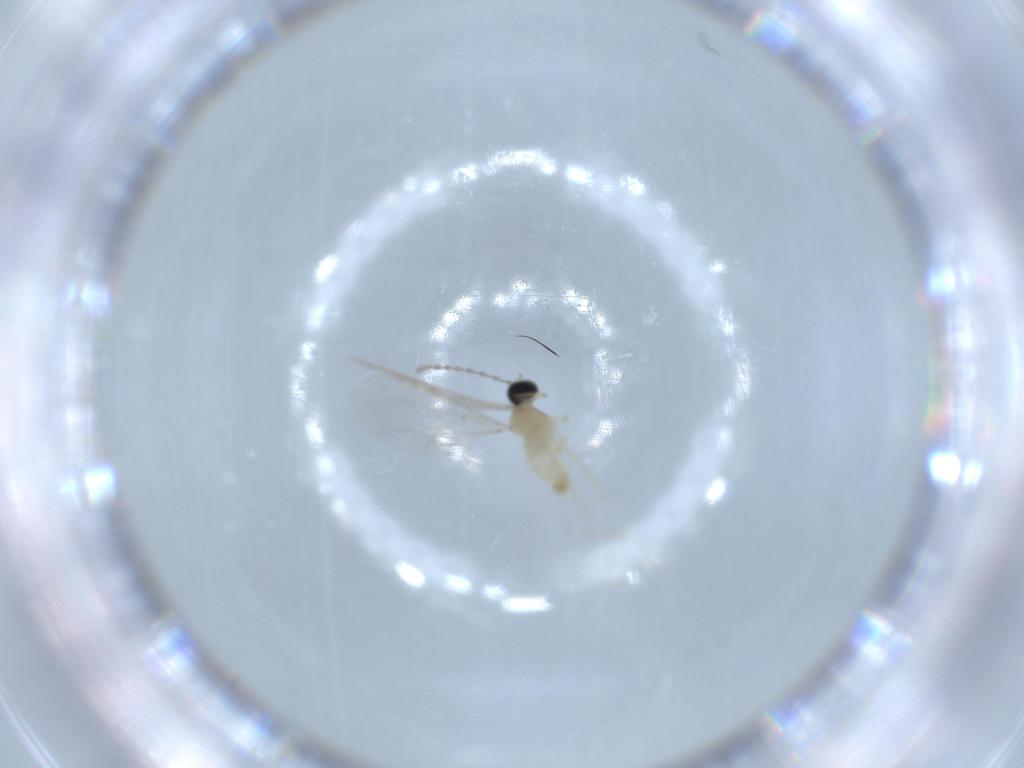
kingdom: Animalia
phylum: Arthropoda
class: Insecta
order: Diptera
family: Cecidomyiidae
